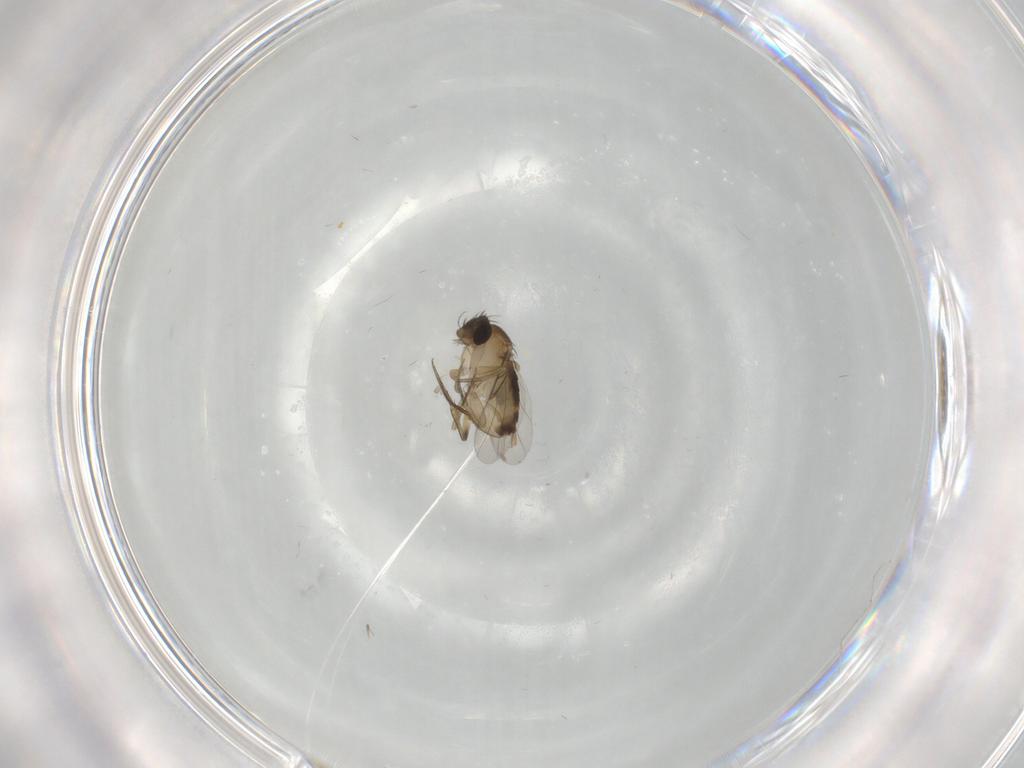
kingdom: Animalia
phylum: Arthropoda
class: Insecta
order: Diptera
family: Phoridae
